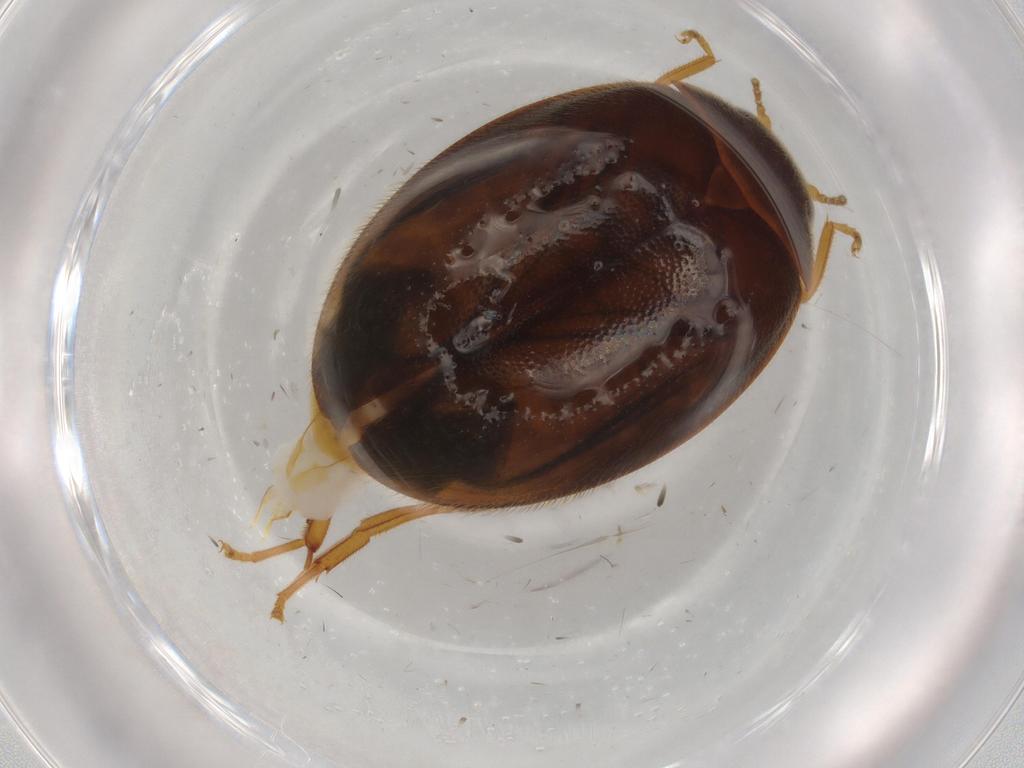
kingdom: Animalia
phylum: Arthropoda
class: Insecta
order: Coleoptera
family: Scirtidae
